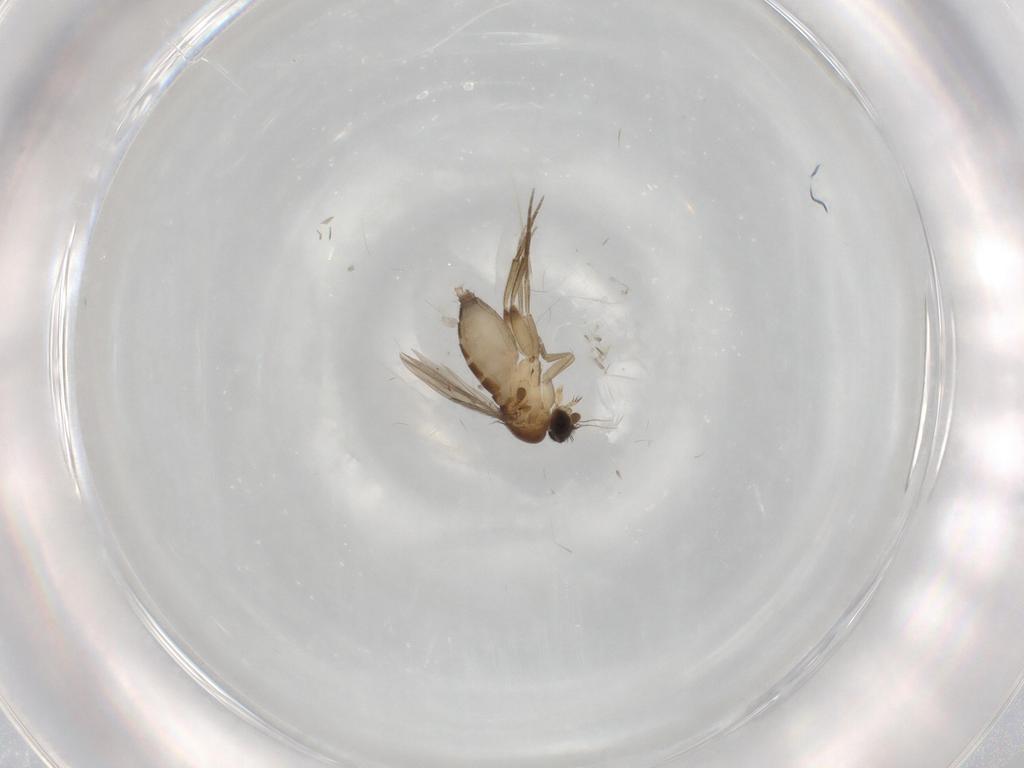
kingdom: Animalia
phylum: Arthropoda
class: Insecta
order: Diptera
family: Phoridae
